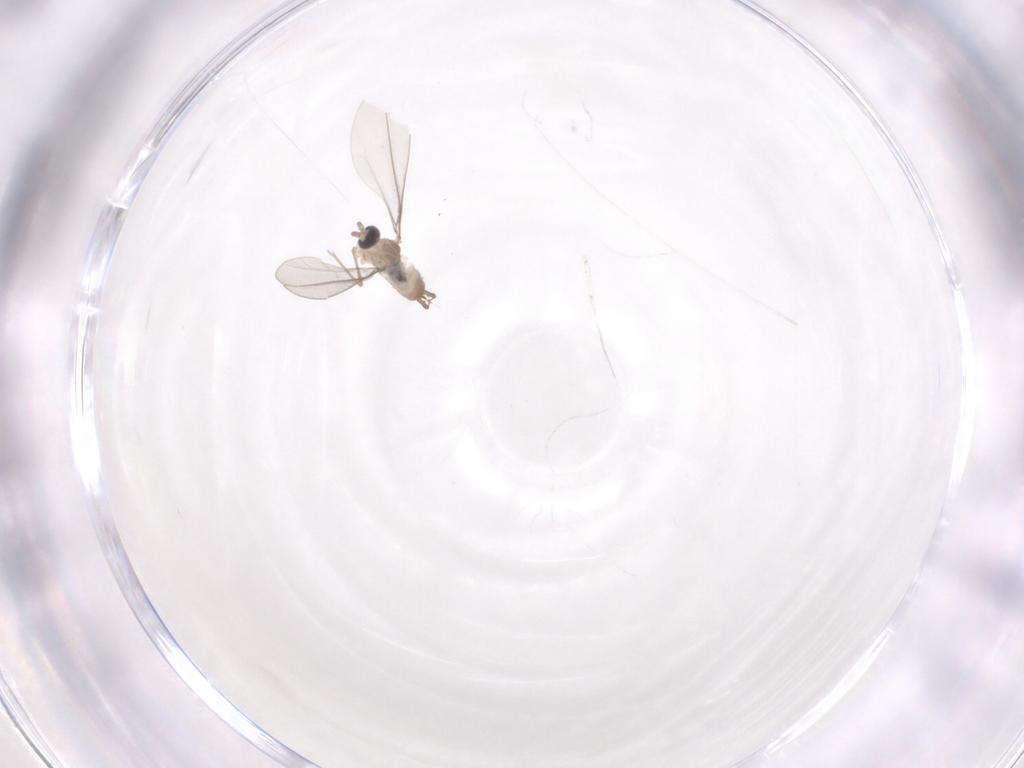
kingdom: Animalia
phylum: Arthropoda
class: Insecta
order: Diptera
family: Cecidomyiidae
